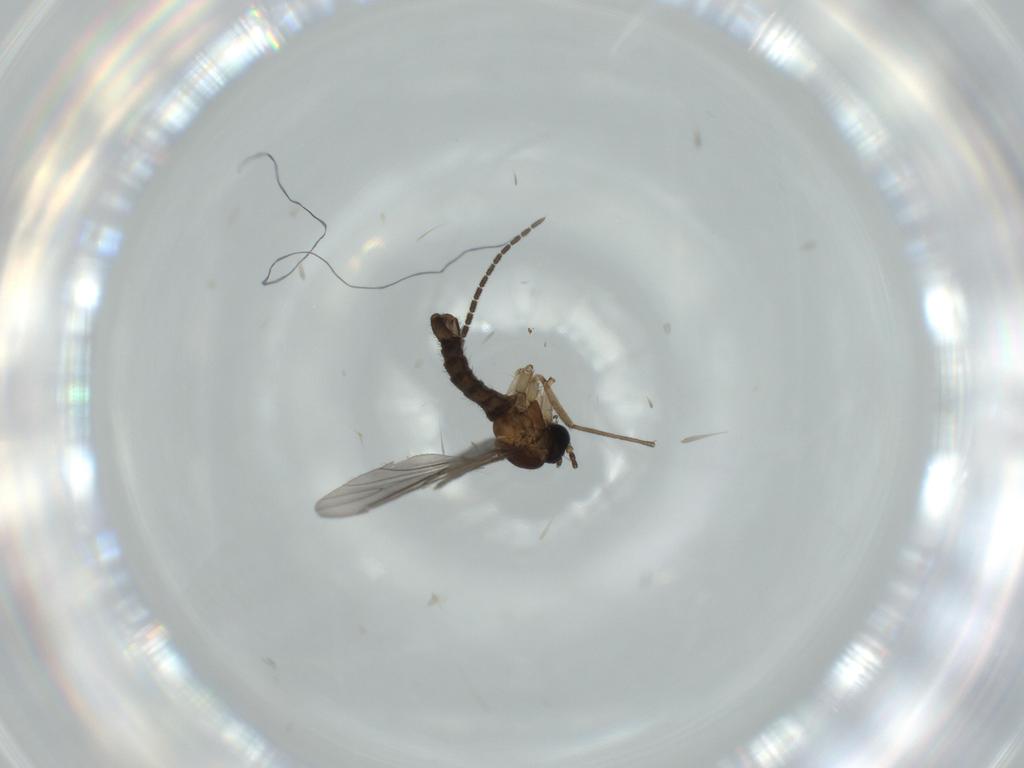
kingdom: Animalia
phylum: Arthropoda
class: Insecta
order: Diptera
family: Sciaridae
